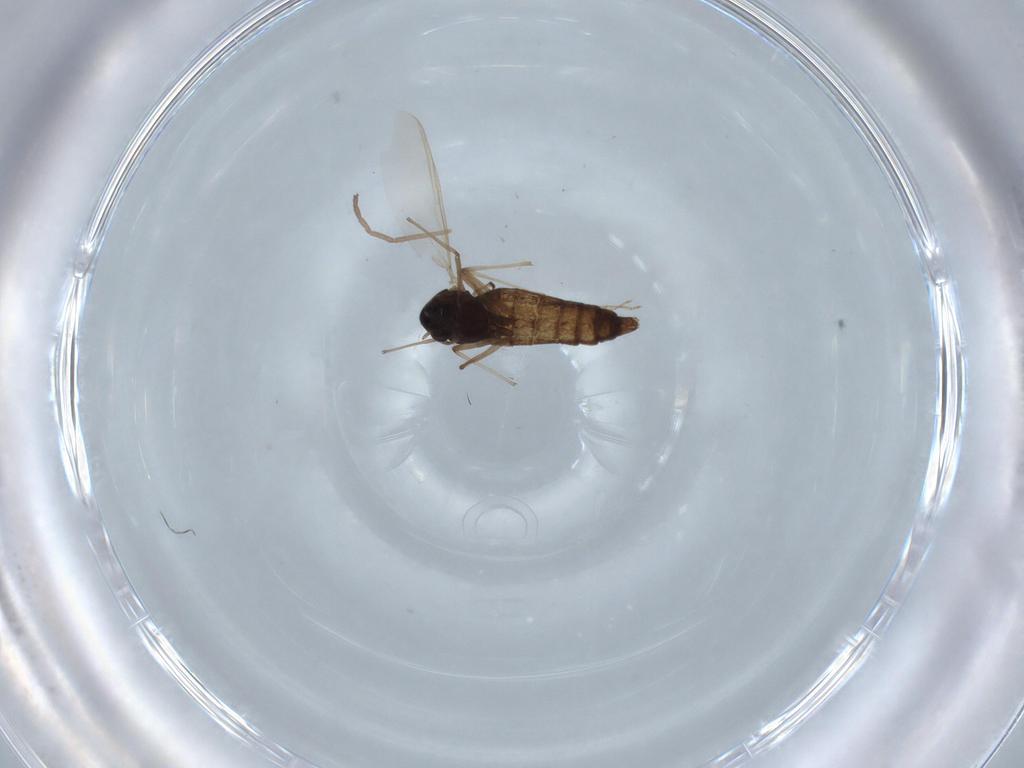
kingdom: Animalia
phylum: Arthropoda
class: Insecta
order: Diptera
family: Chironomidae
